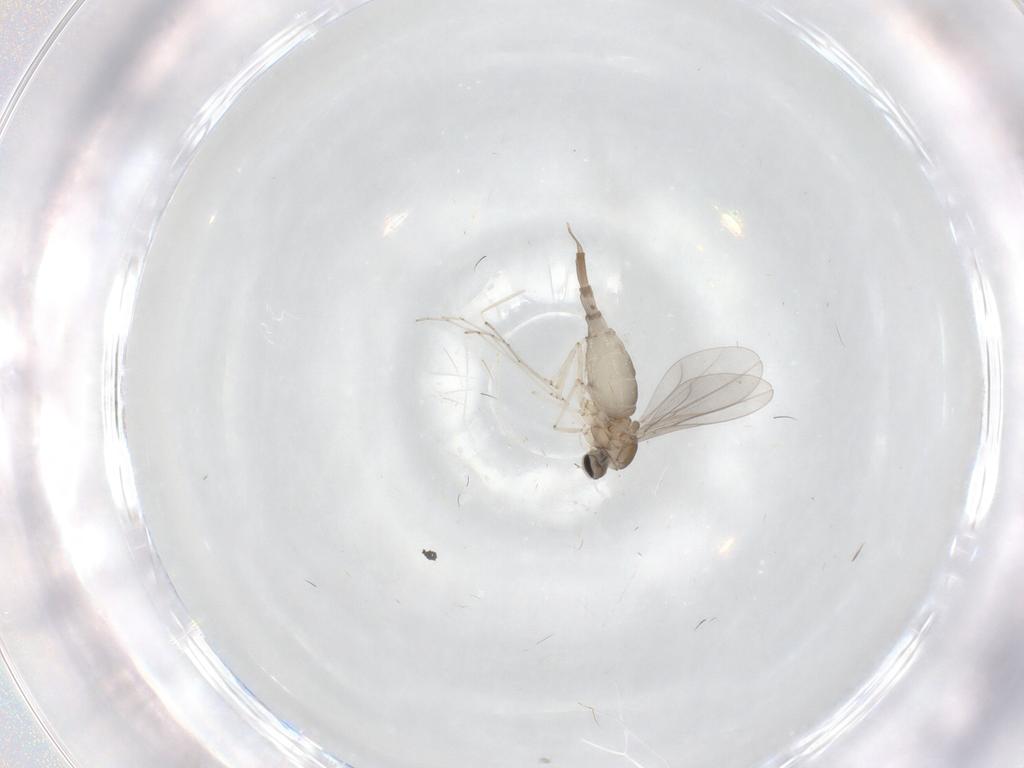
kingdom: Animalia
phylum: Arthropoda
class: Insecta
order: Diptera
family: Cecidomyiidae
